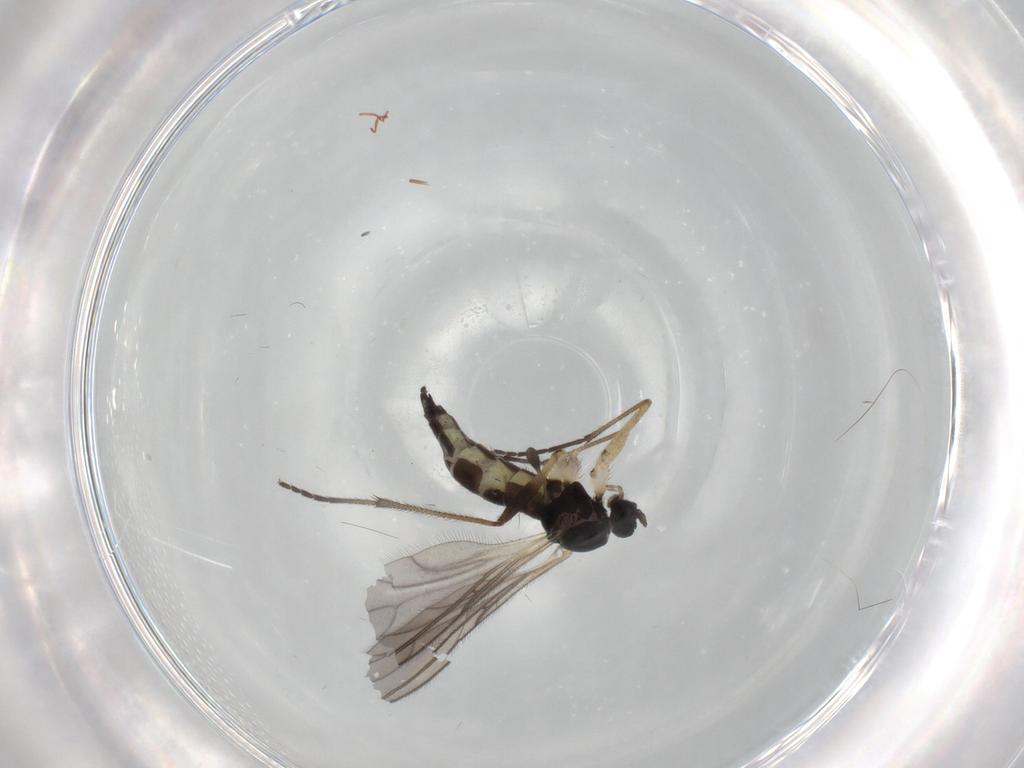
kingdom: Animalia
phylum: Arthropoda
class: Insecta
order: Diptera
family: Sciaridae
